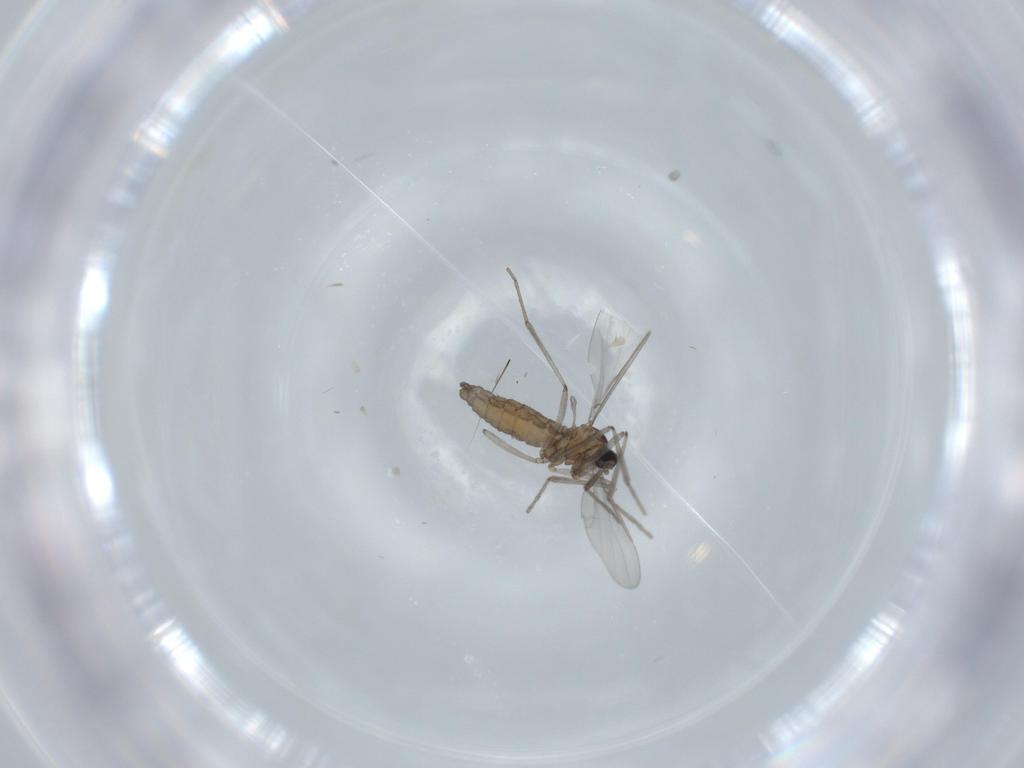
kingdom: Animalia
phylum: Arthropoda
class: Insecta
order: Diptera
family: Cecidomyiidae
